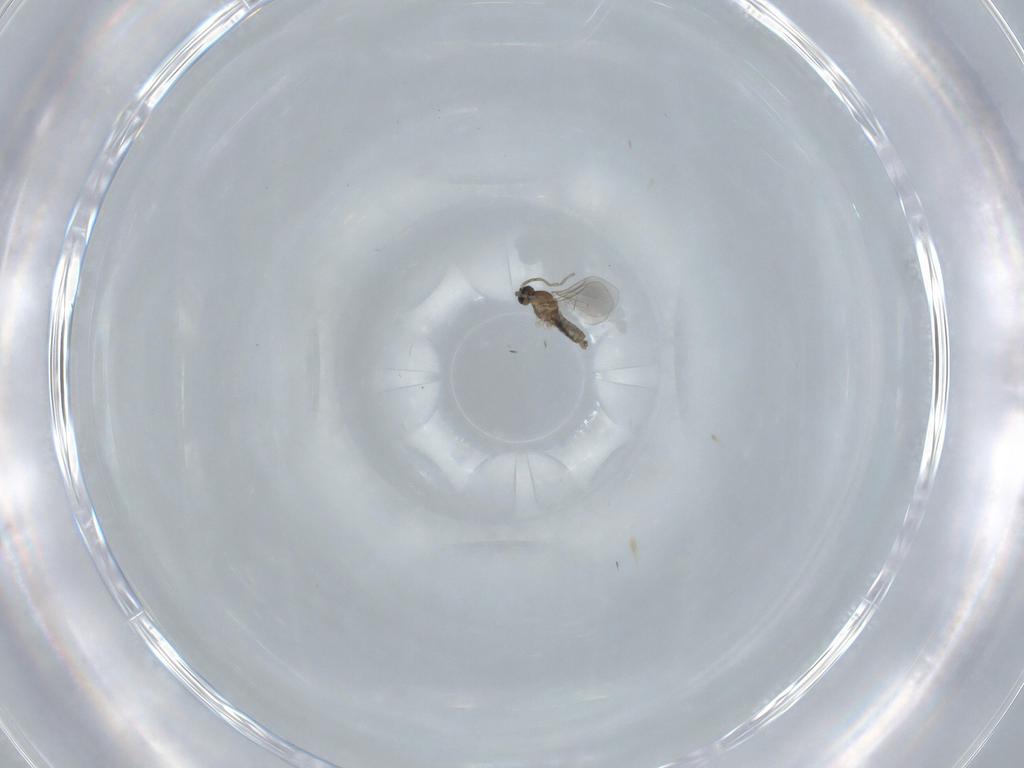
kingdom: Animalia
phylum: Arthropoda
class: Insecta
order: Diptera
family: Cecidomyiidae
